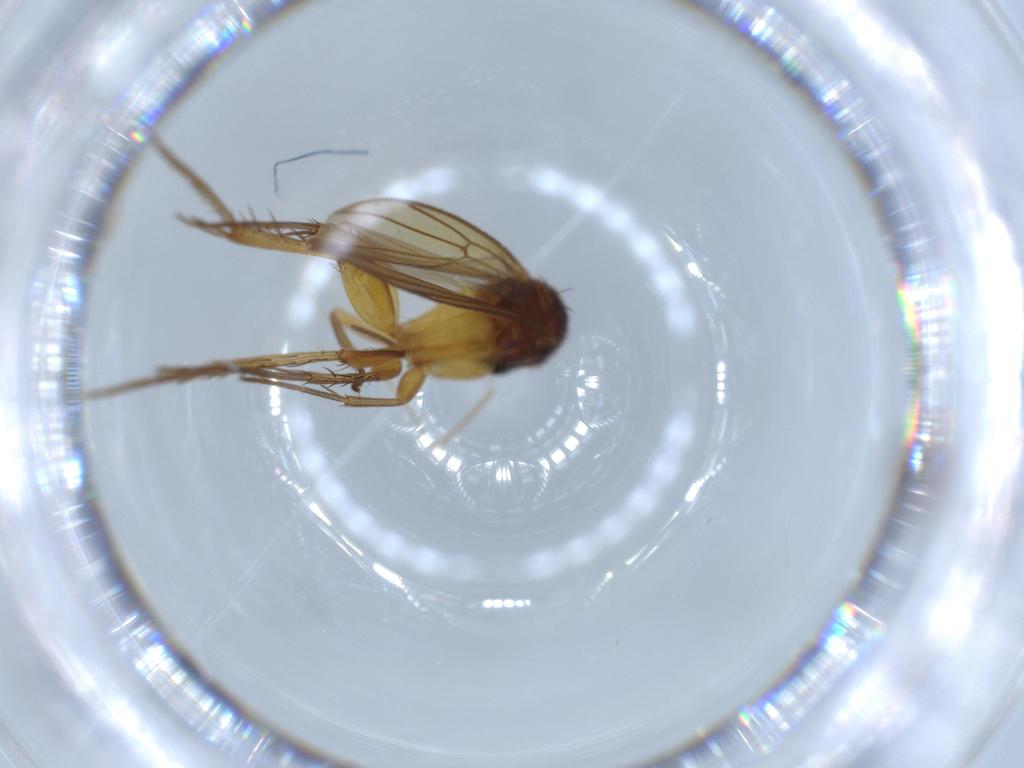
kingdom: Animalia
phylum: Arthropoda
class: Insecta
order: Diptera
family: Mycetophilidae
